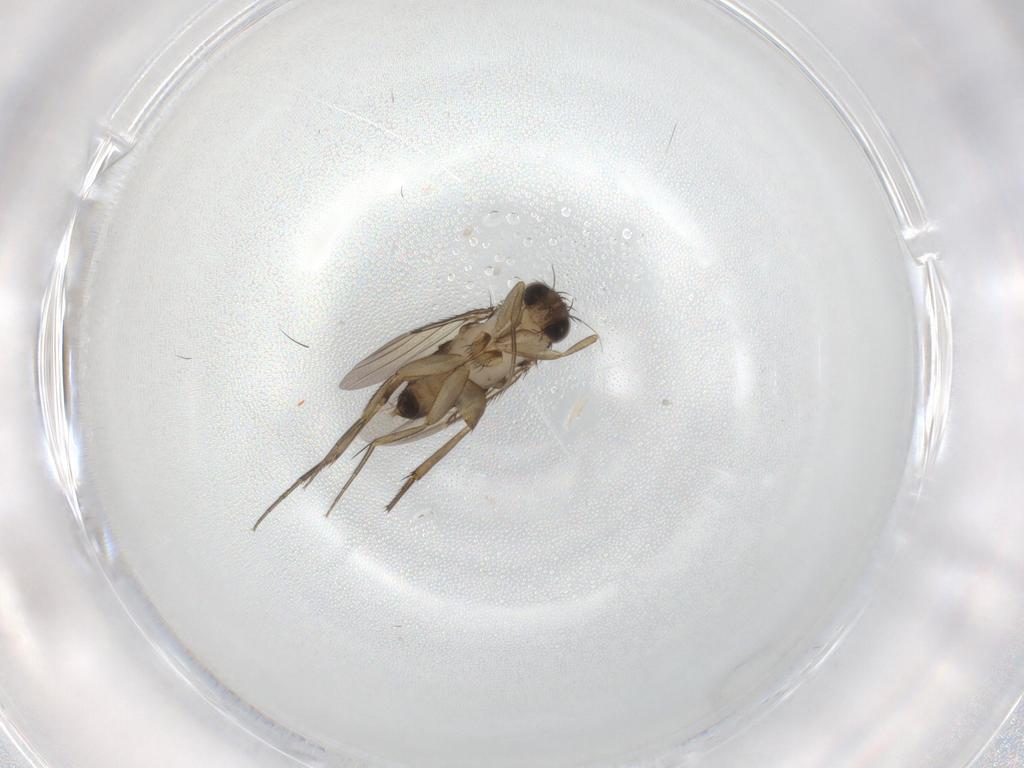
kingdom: Animalia
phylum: Arthropoda
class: Insecta
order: Diptera
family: Phoridae
